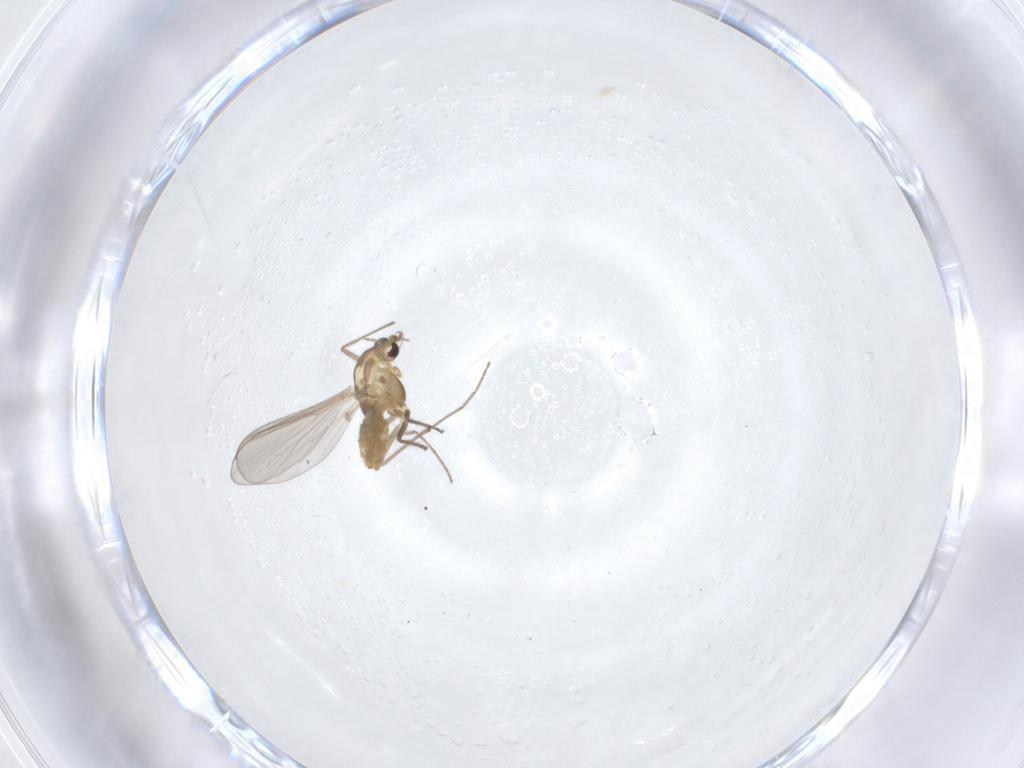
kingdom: Animalia
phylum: Arthropoda
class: Insecta
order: Diptera
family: Chironomidae
